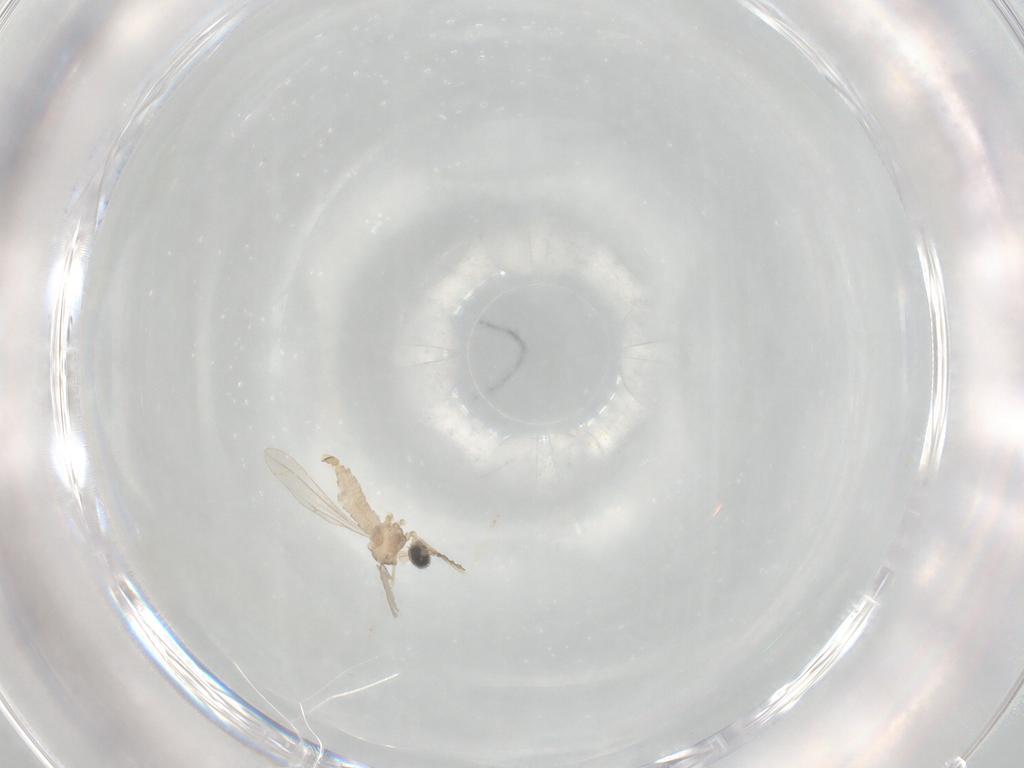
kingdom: Animalia
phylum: Arthropoda
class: Insecta
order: Diptera
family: Cecidomyiidae
